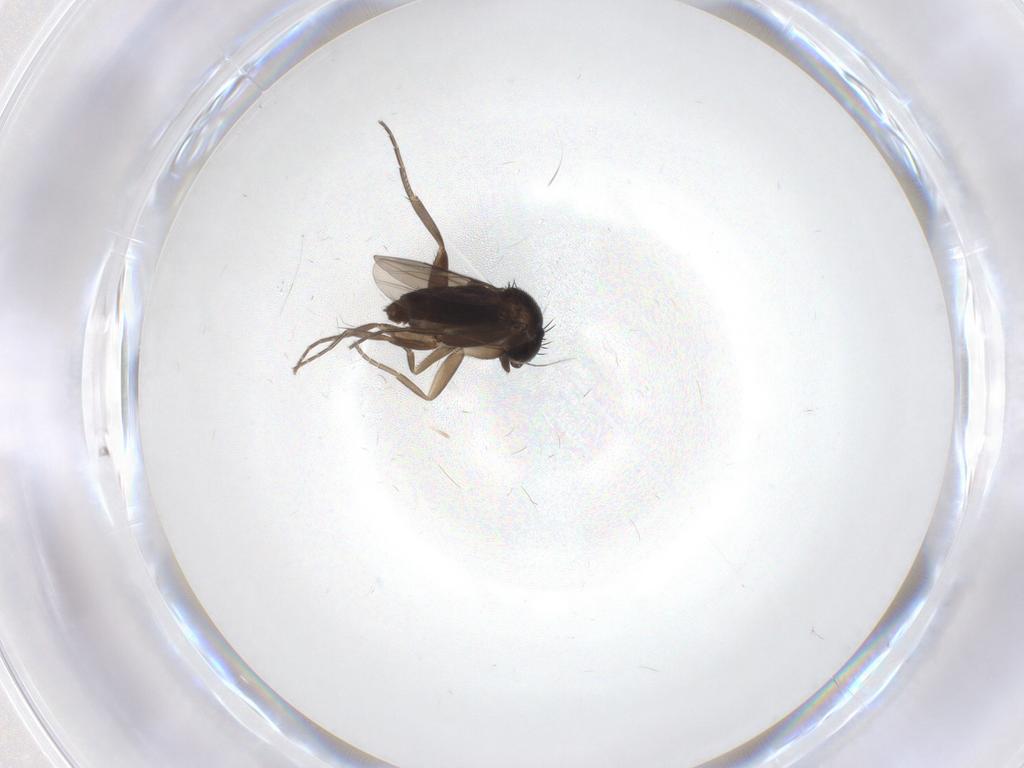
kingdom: Animalia
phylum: Arthropoda
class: Insecta
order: Diptera
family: Phoridae
